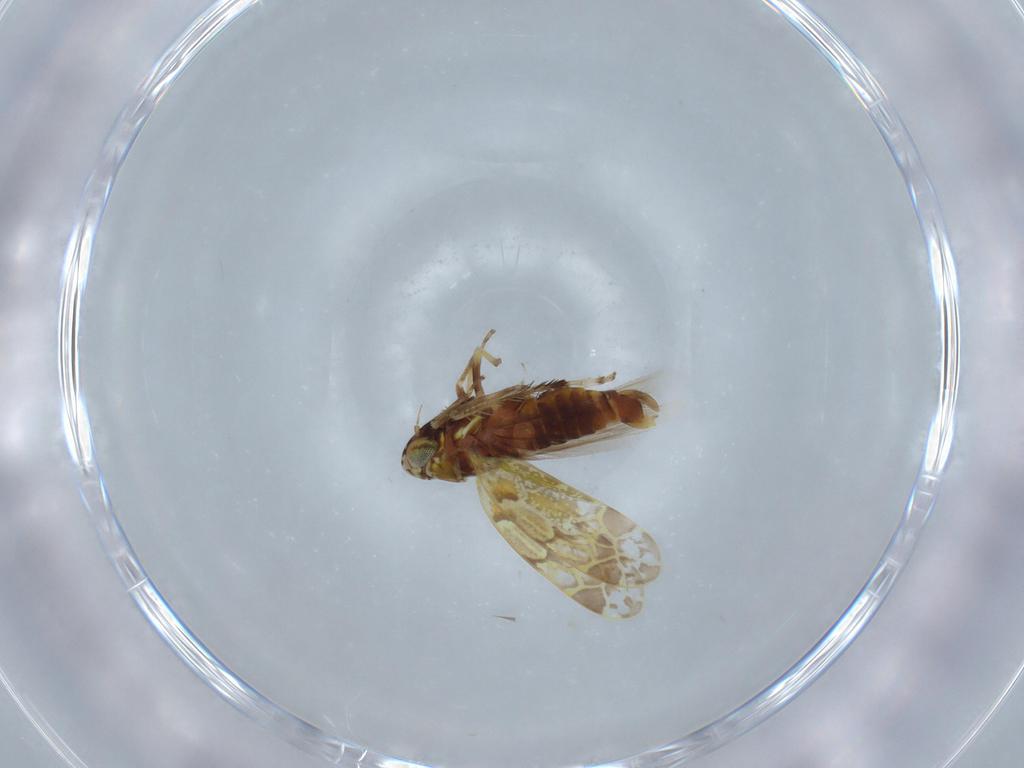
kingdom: Animalia
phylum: Arthropoda
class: Insecta
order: Hemiptera
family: Cicadellidae
